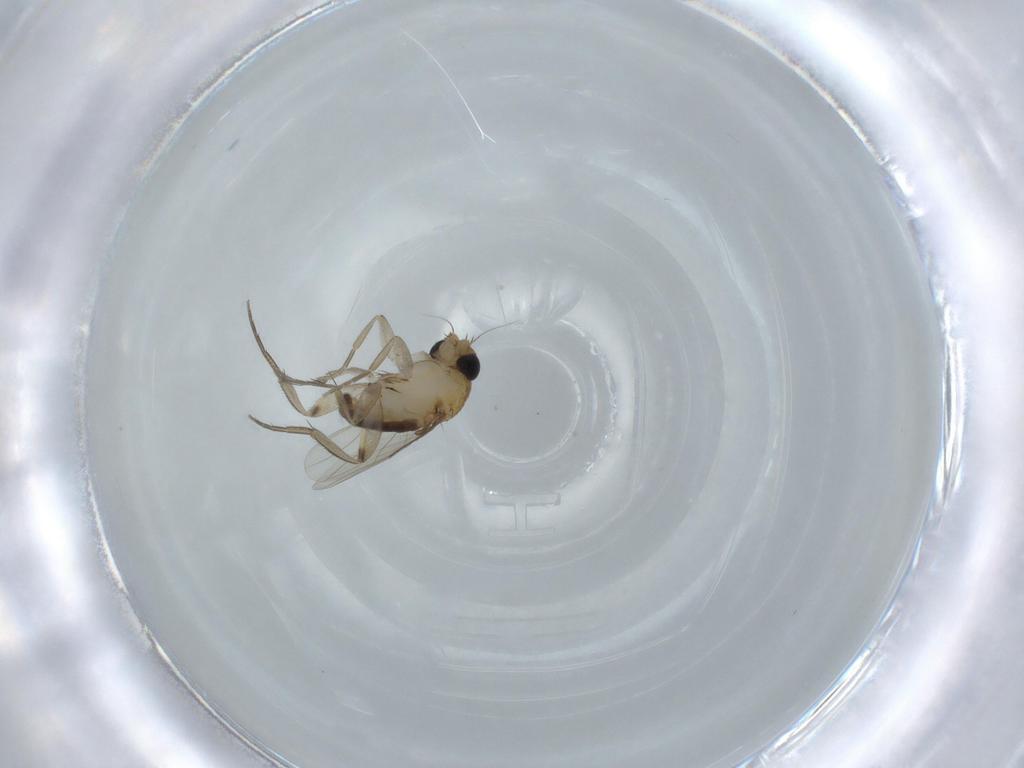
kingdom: Animalia
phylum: Arthropoda
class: Insecta
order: Diptera
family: Phoridae
